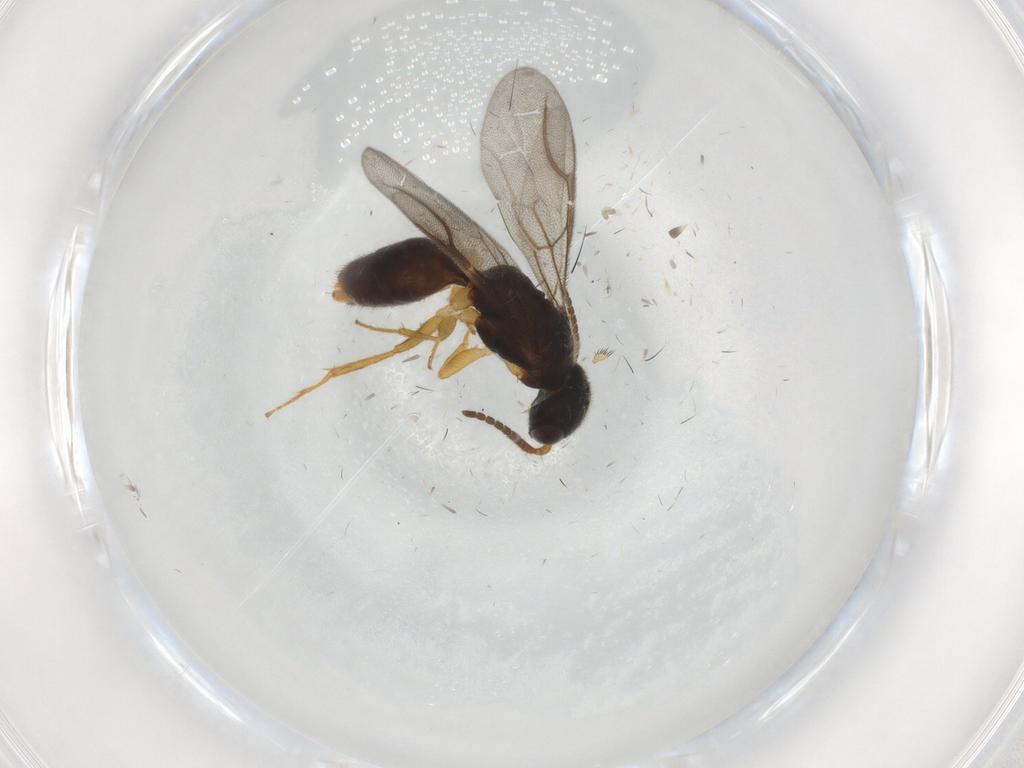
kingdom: Animalia
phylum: Arthropoda
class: Insecta
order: Hymenoptera
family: Bethylidae
